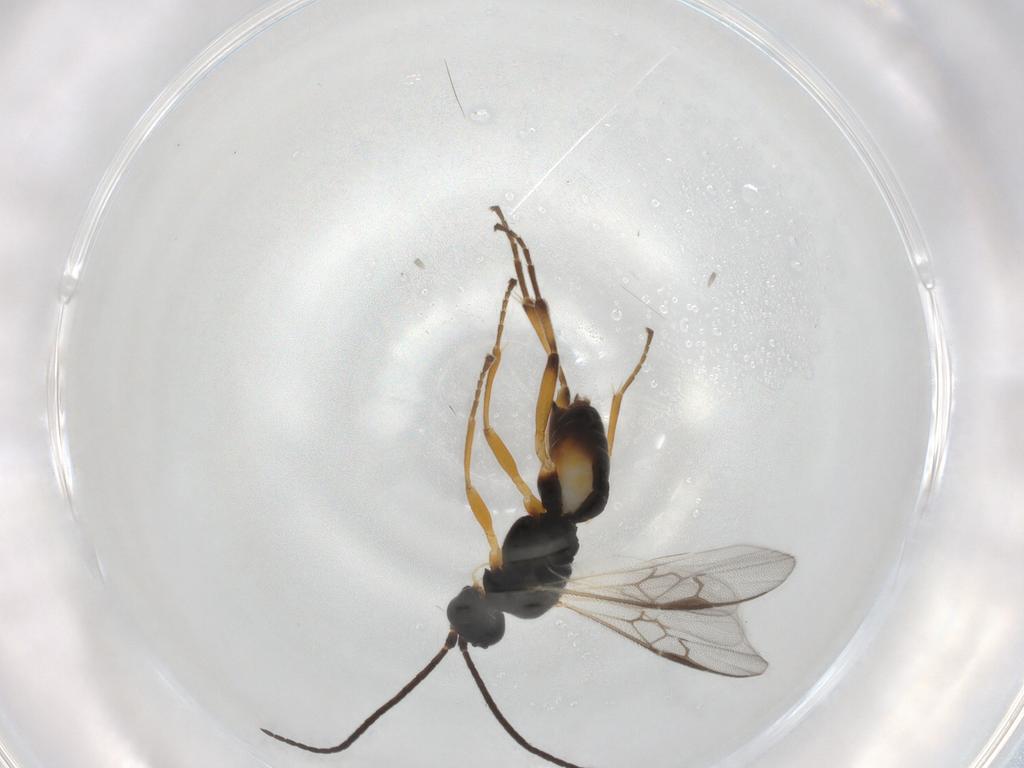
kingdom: Animalia
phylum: Arthropoda
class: Insecta
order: Hymenoptera
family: Braconidae
